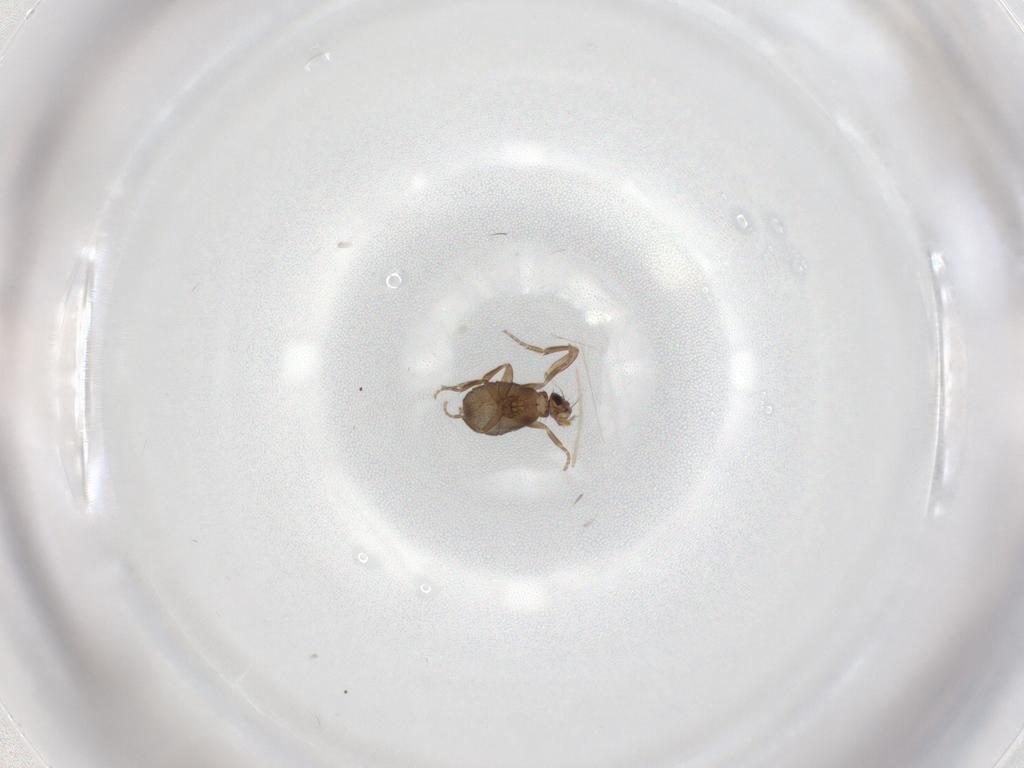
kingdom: Animalia
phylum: Arthropoda
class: Insecta
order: Diptera
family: Chironomidae
